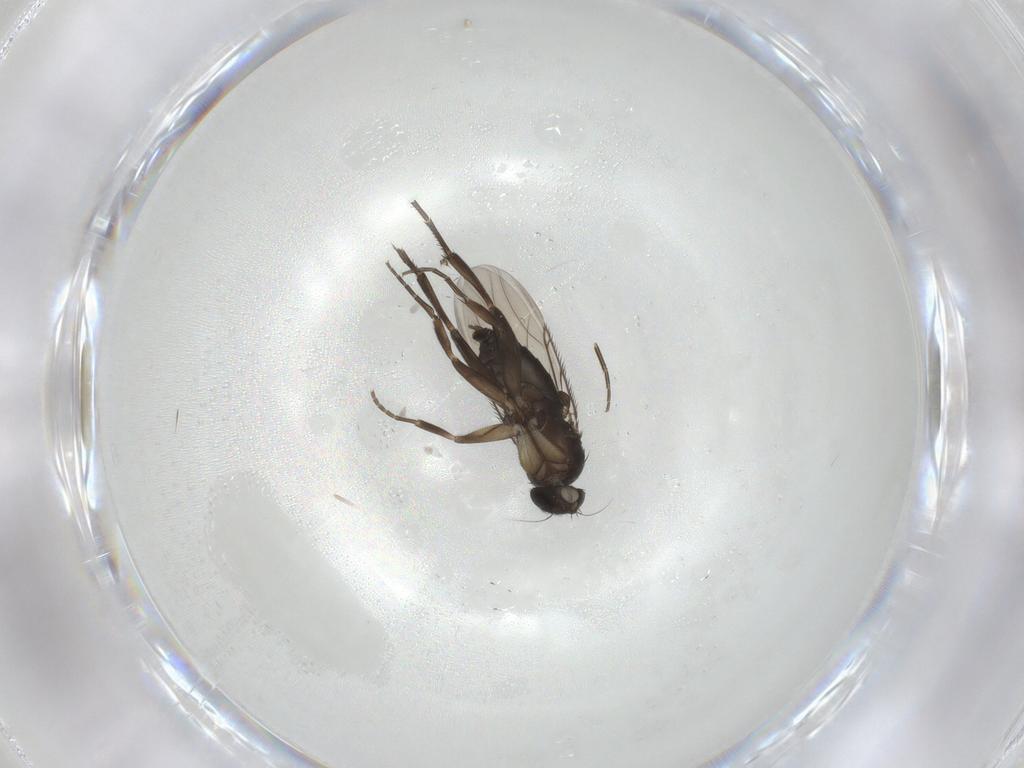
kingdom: Animalia
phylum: Arthropoda
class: Insecta
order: Diptera
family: Phoridae
